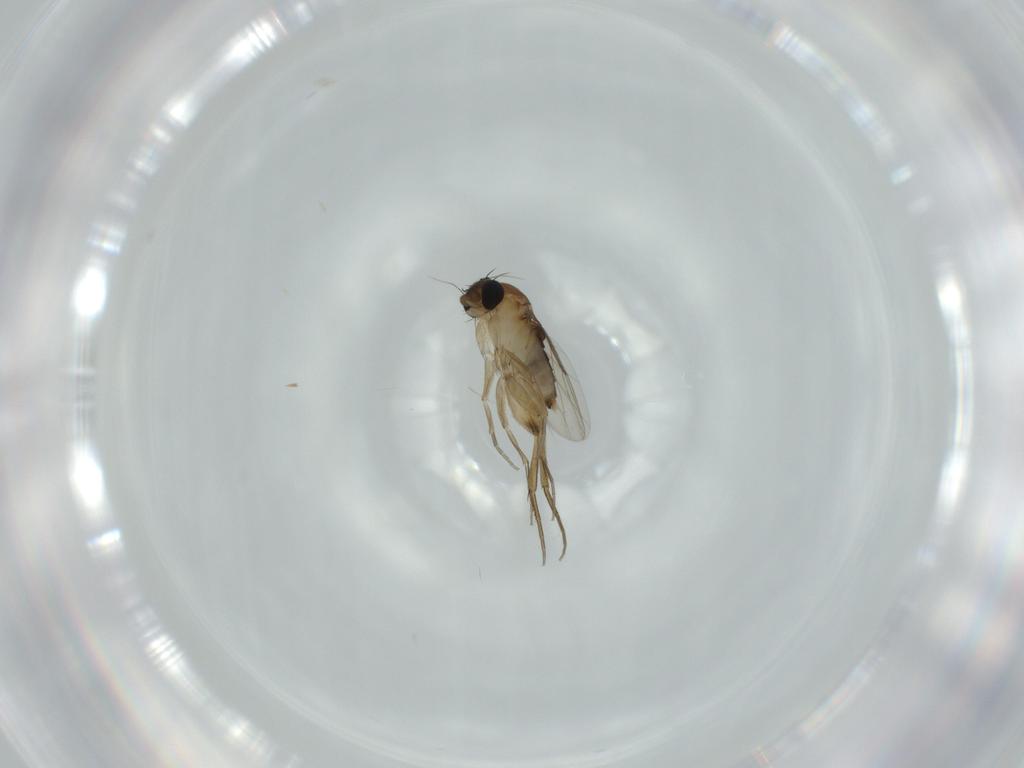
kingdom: Animalia
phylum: Arthropoda
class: Insecta
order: Diptera
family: Phoridae
